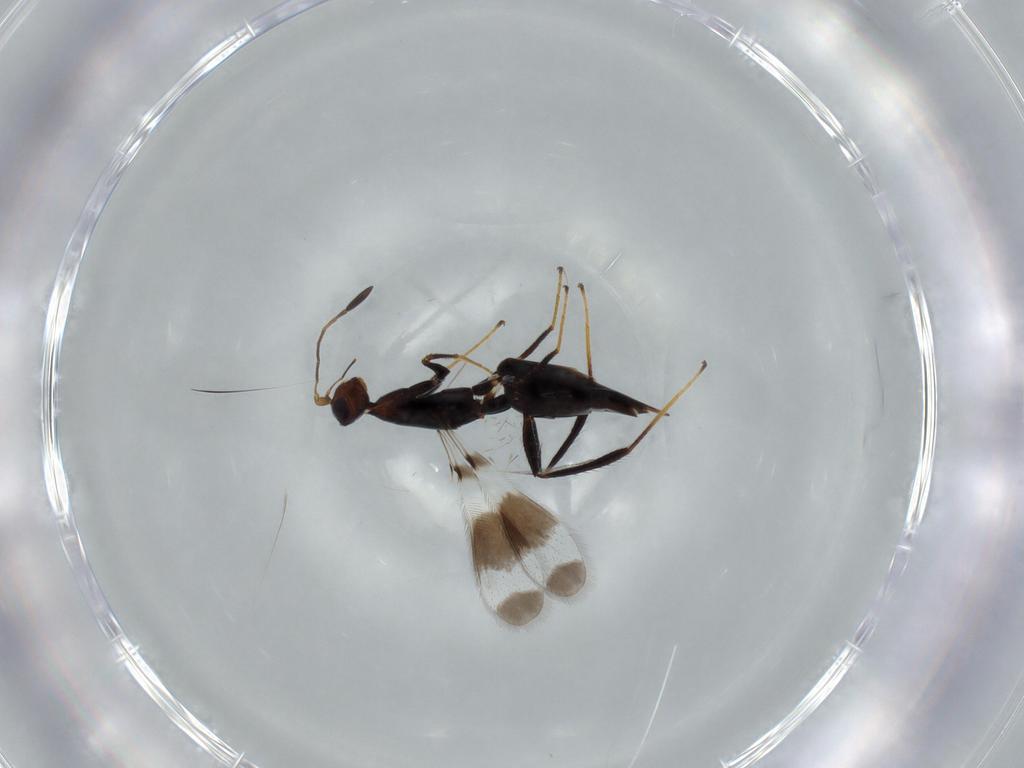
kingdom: Animalia
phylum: Arthropoda
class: Insecta
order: Hymenoptera
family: Mymaridae
